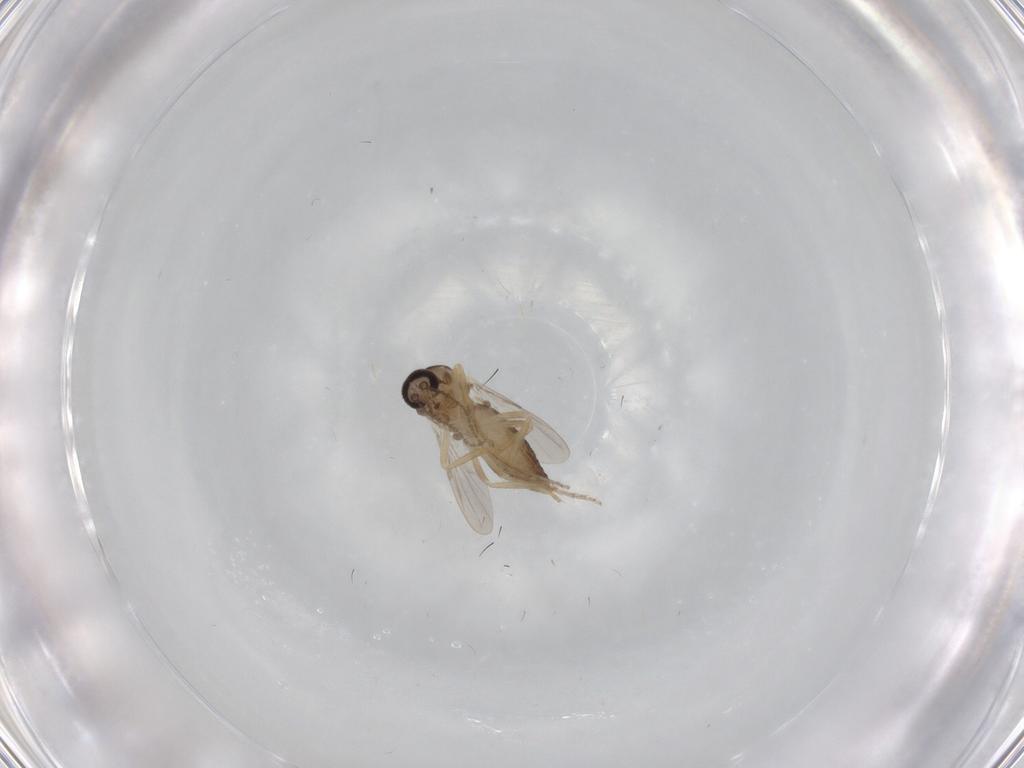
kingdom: Animalia
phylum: Arthropoda
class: Insecta
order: Diptera
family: Ceratopogonidae
